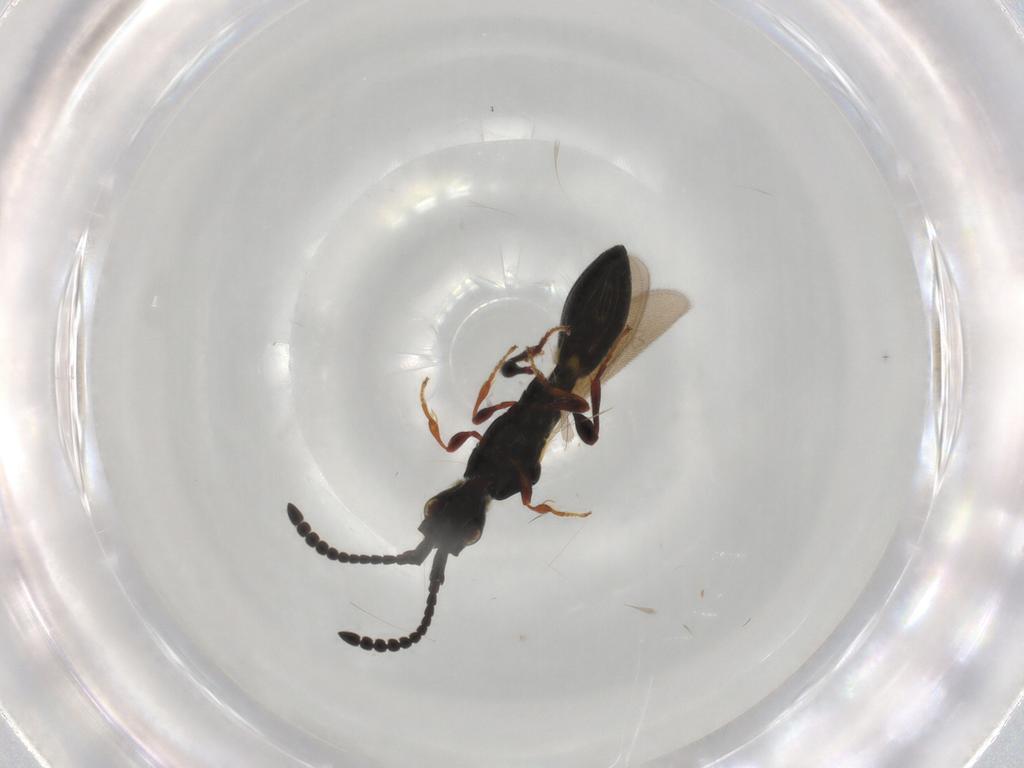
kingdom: Animalia
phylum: Arthropoda
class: Insecta
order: Hymenoptera
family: Diapriidae
